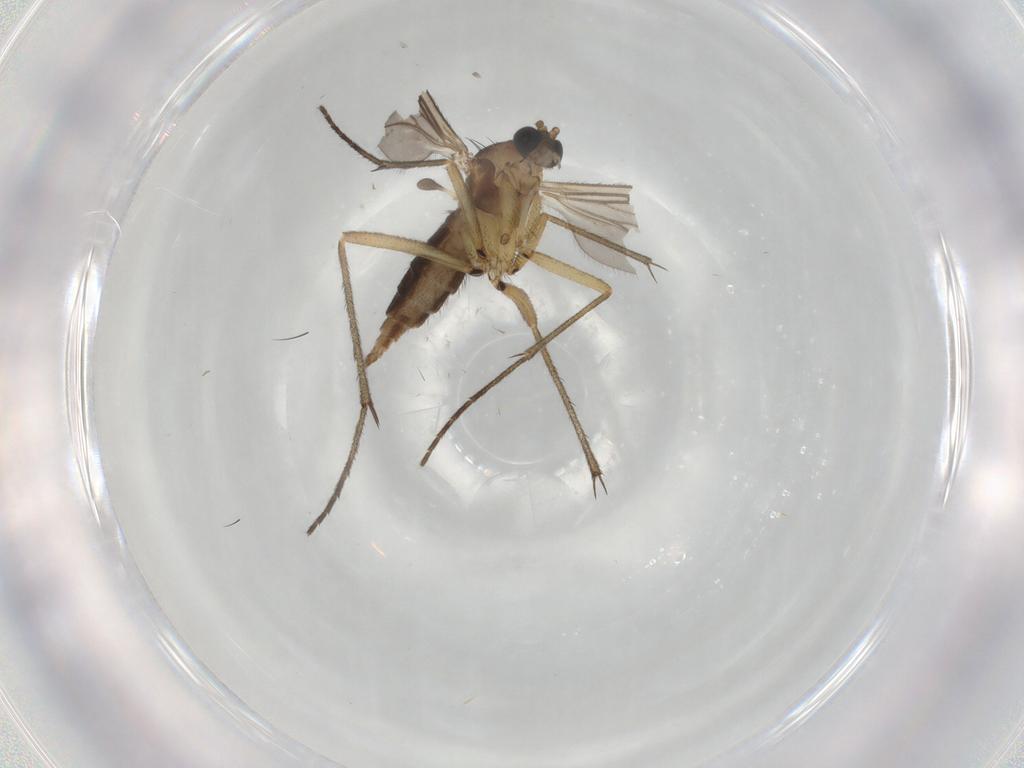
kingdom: Animalia
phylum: Arthropoda
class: Insecta
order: Diptera
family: Sciaridae
